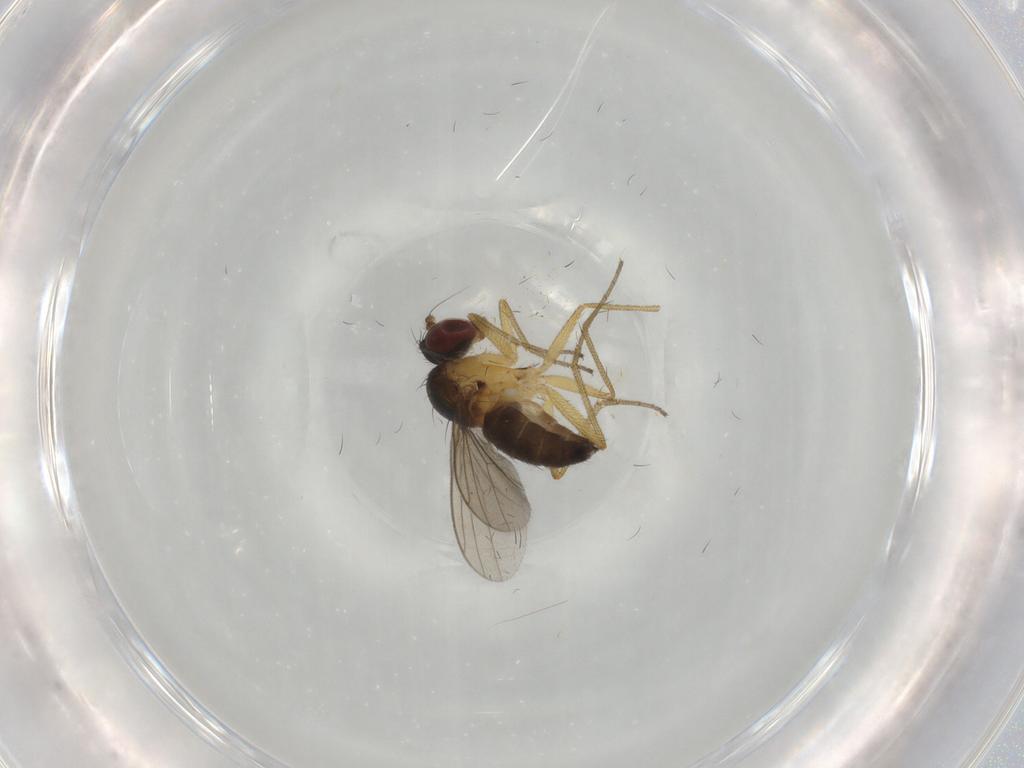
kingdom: Animalia
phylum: Arthropoda
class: Insecta
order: Diptera
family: Dolichopodidae
